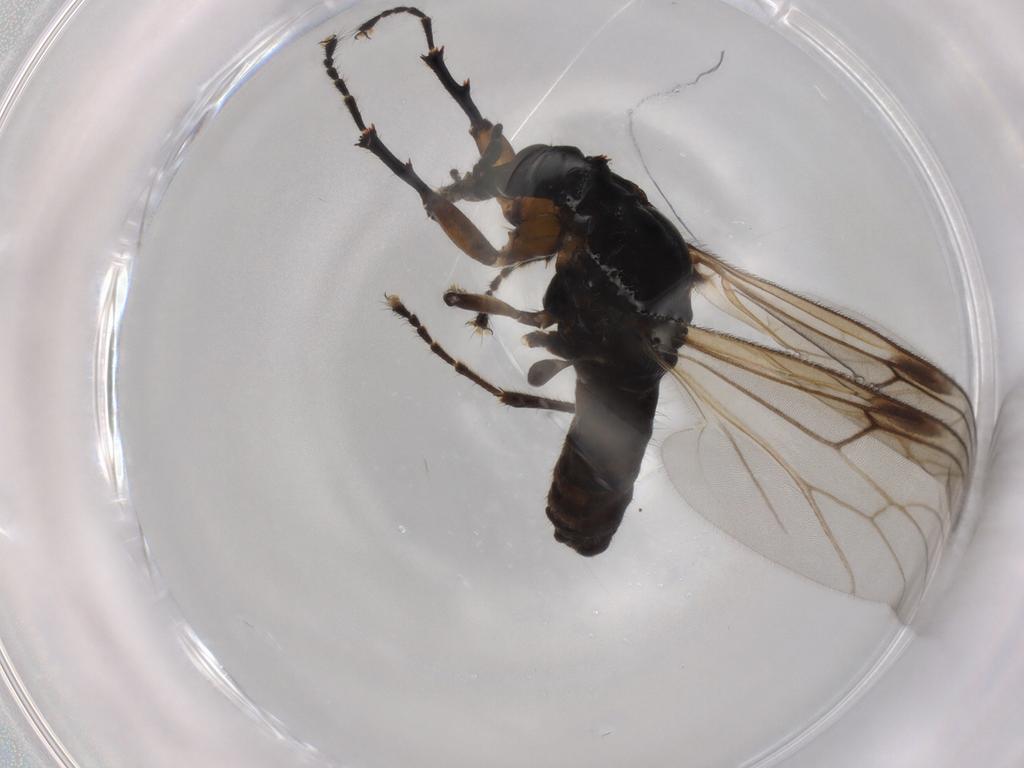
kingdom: Animalia
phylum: Arthropoda
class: Insecta
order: Diptera
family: Bibionidae
